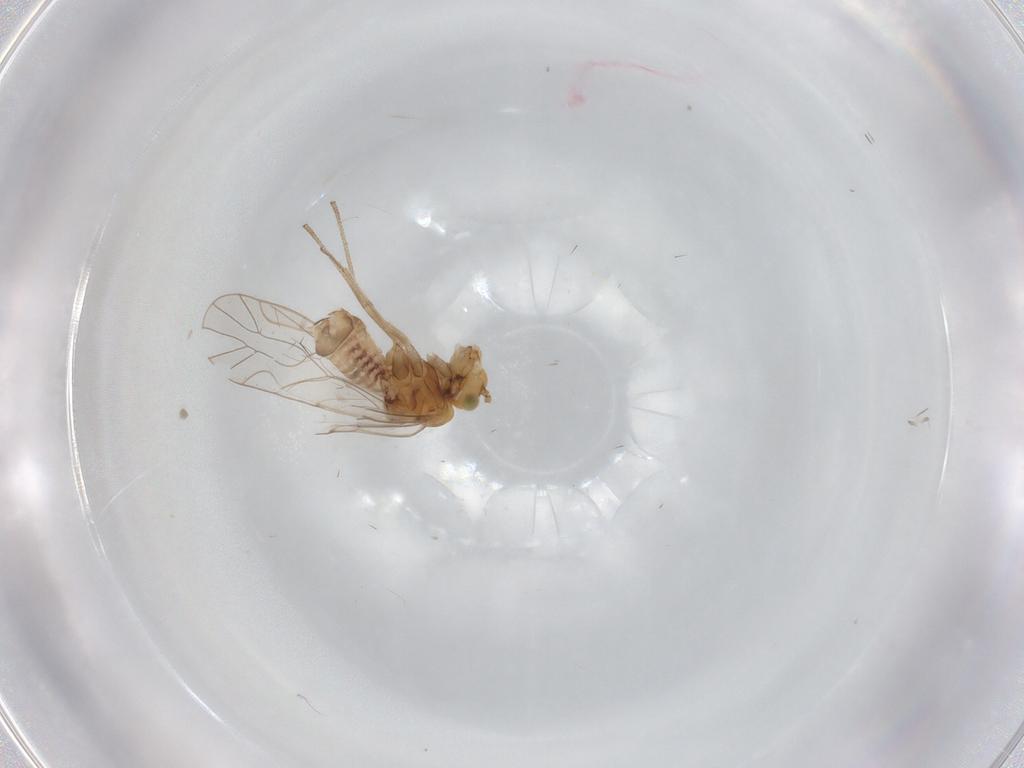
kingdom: Animalia
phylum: Arthropoda
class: Insecta
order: Psocodea
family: Lachesillidae
